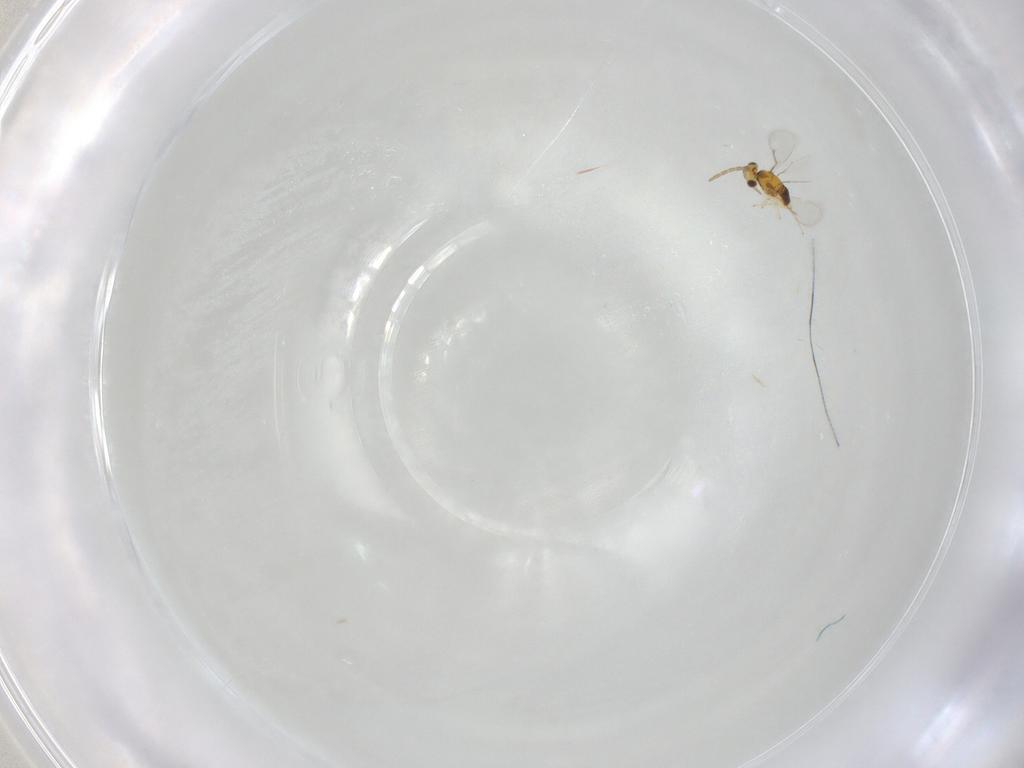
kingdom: Animalia
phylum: Arthropoda
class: Insecta
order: Hymenoptera
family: Aphelinidae
